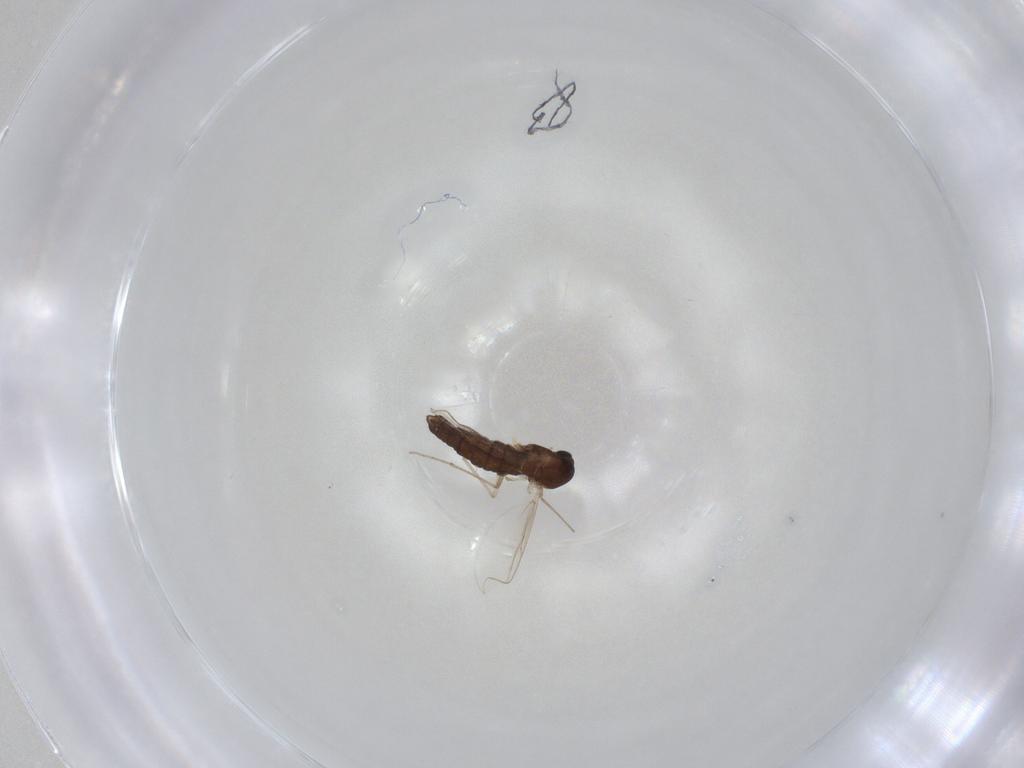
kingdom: Animalia
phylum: Arthropoda
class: Insecta
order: Diptera
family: Chironomidae
